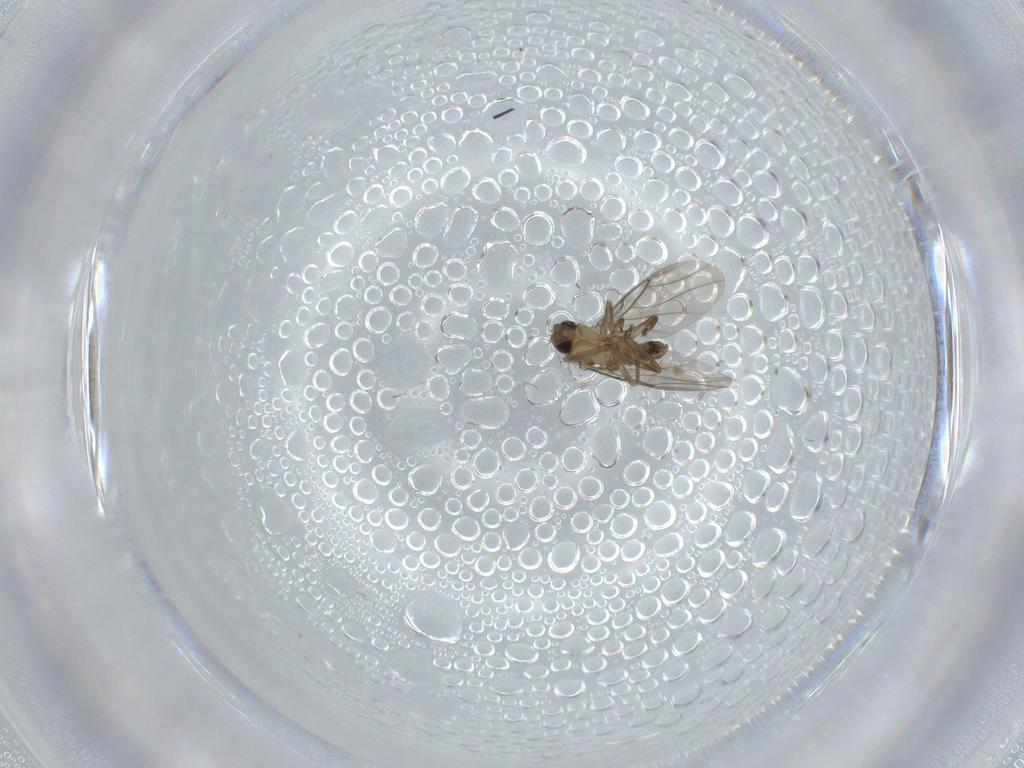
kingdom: Animalia
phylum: Arthropoda
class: Insecta
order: Diptera
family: Phoridae
